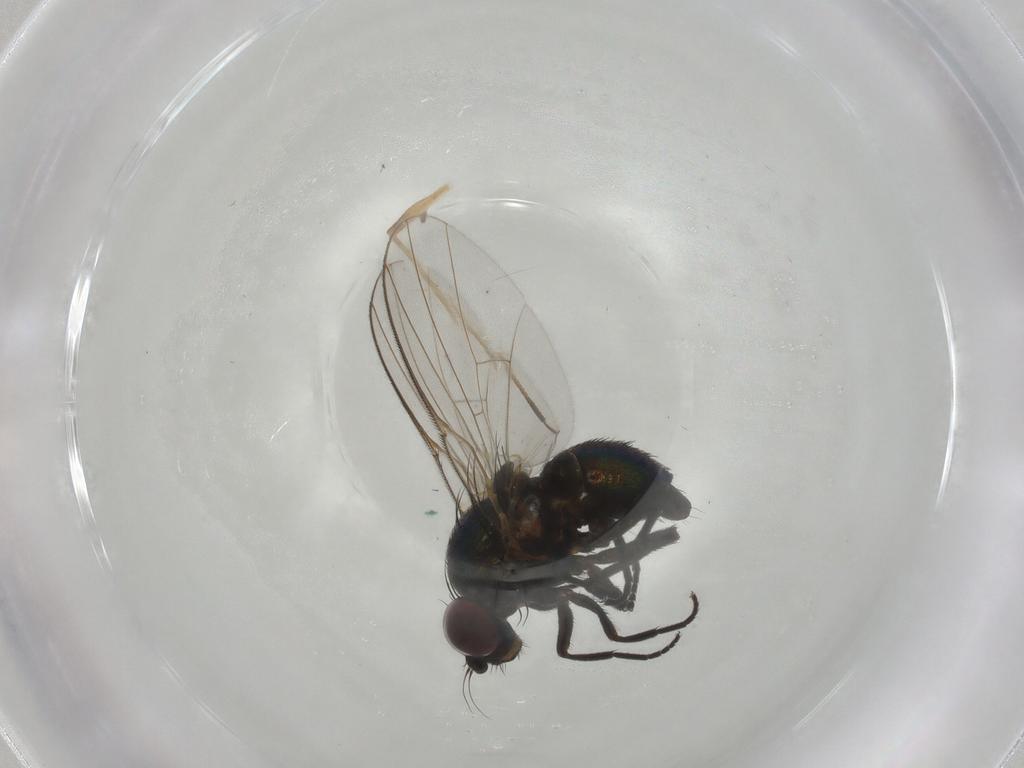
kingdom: Animalia
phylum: Arthropoda
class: Insecta
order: Diptera
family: Agromyzidae
